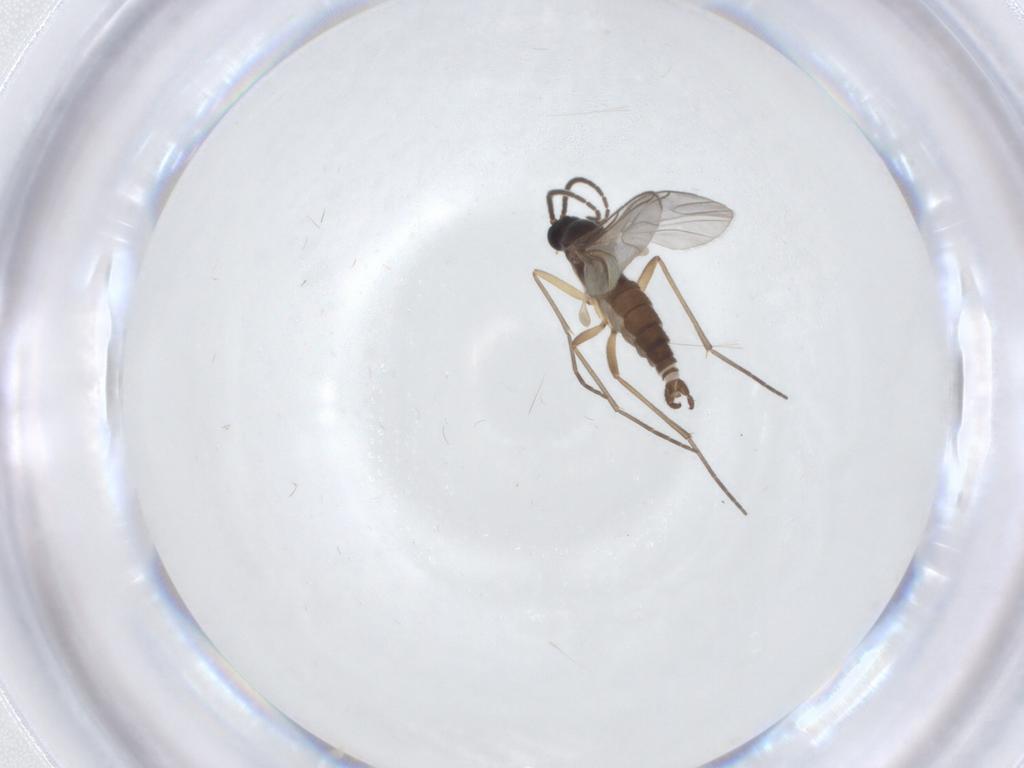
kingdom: Animalia
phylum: Arthropoda
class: Insecta
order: Diptera
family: Sciaridae
